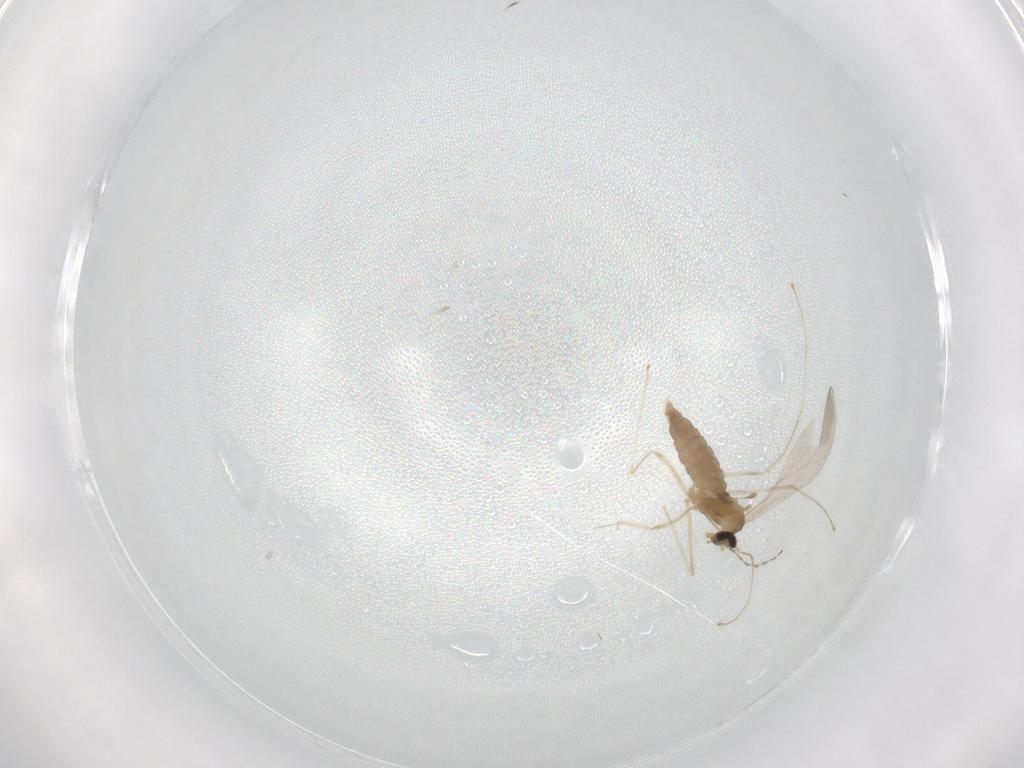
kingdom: Animalia
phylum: Arthropoda
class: Insecta
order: Diptera
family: Cecidomyiidae
